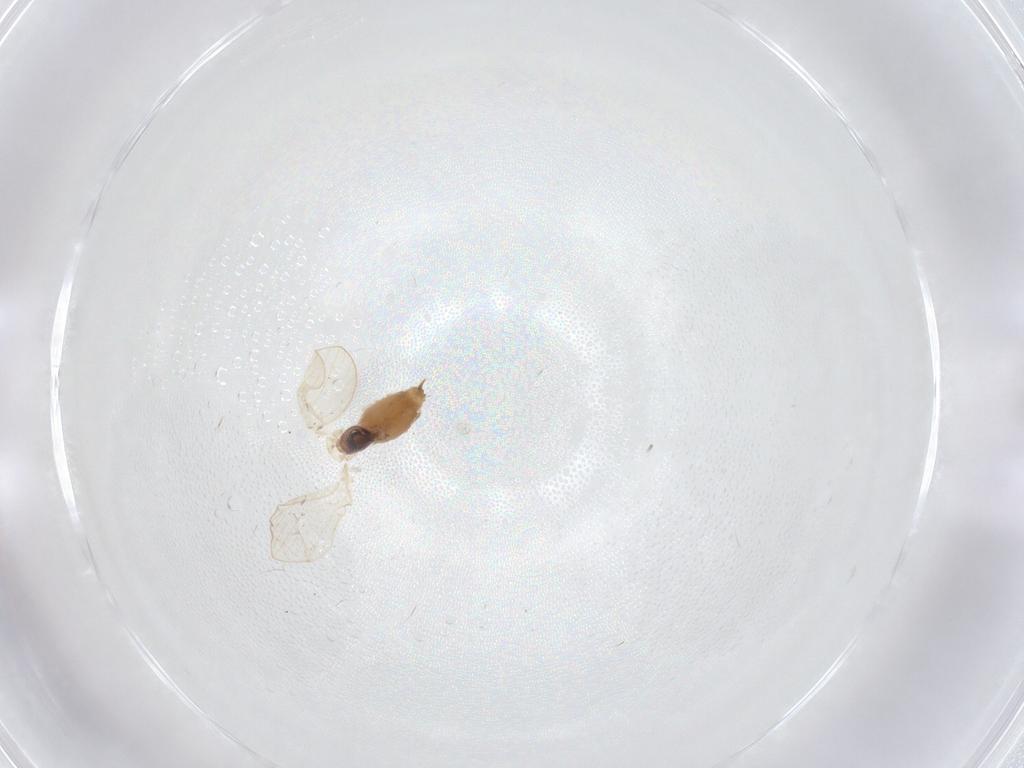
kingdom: Animalia
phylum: Arthropoda
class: Insecta
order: Diptera
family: Psychodidae
